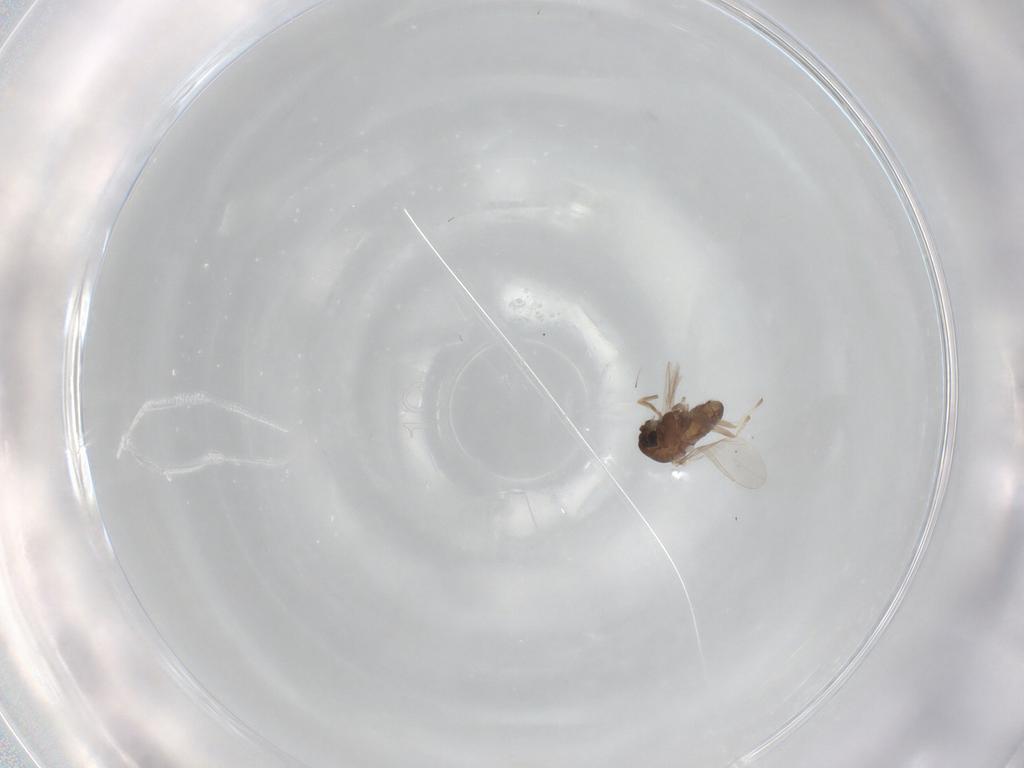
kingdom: Animalia
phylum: Arthropoda
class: Insecta
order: Diptera
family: Chironomidae
